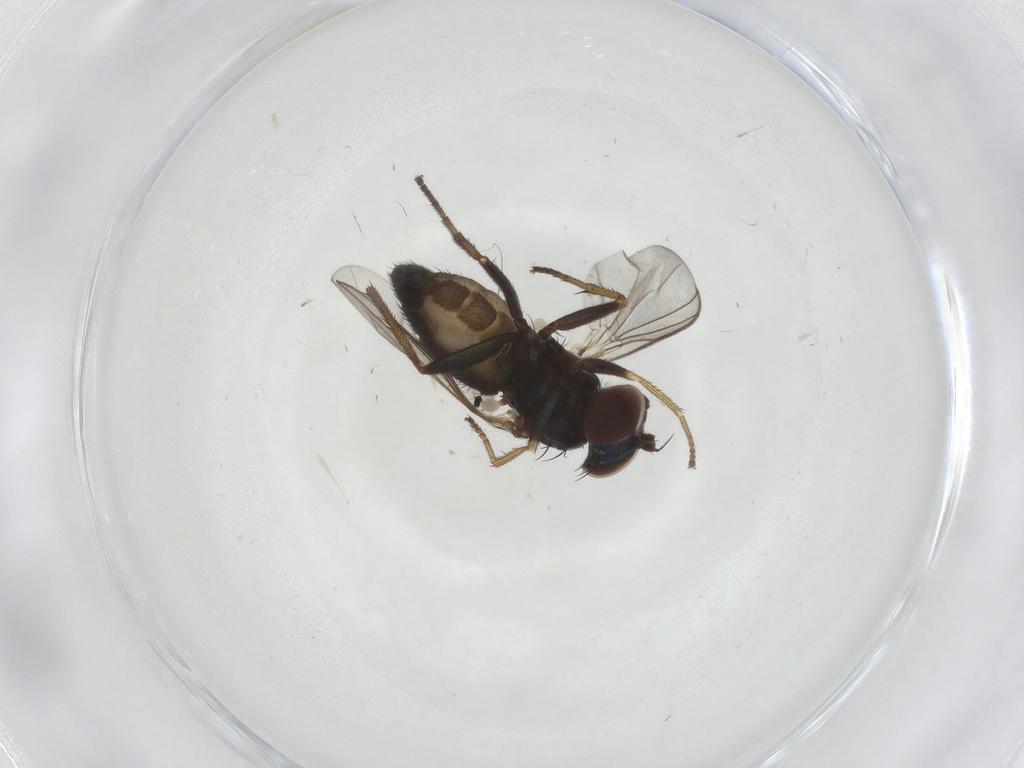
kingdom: Animalia
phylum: Arthropoda
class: Insecta
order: Diptera
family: Dolichopodidae
